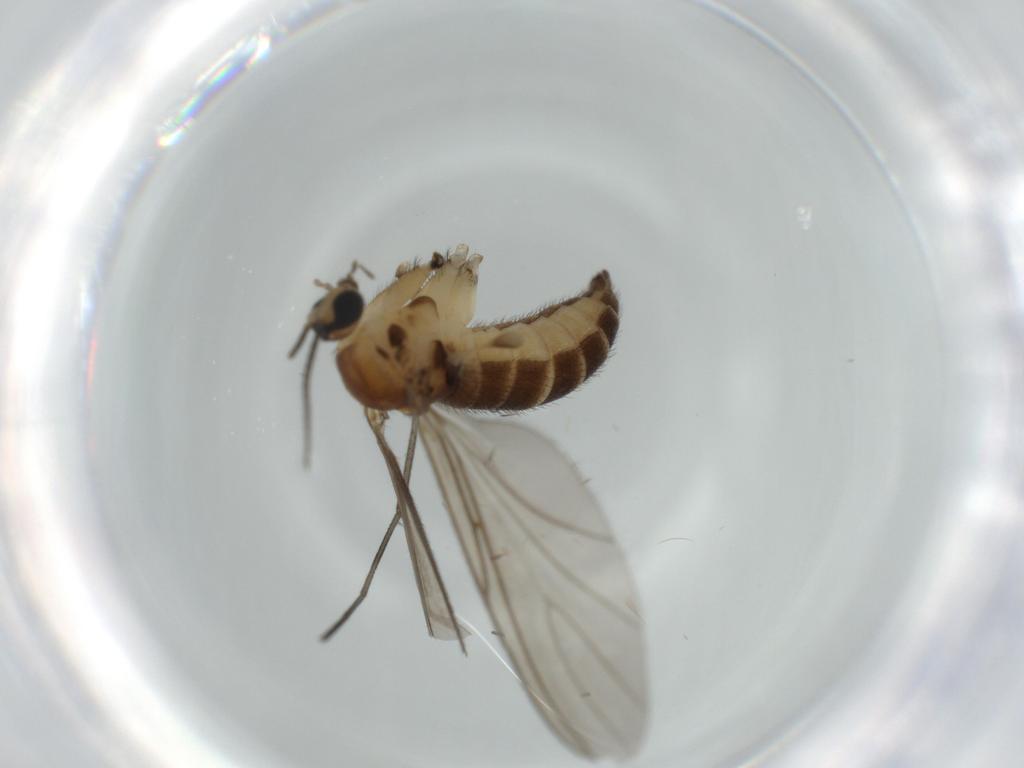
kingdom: Animalia
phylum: Arthropoda
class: Insecta
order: Diptera
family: Sciaridae
